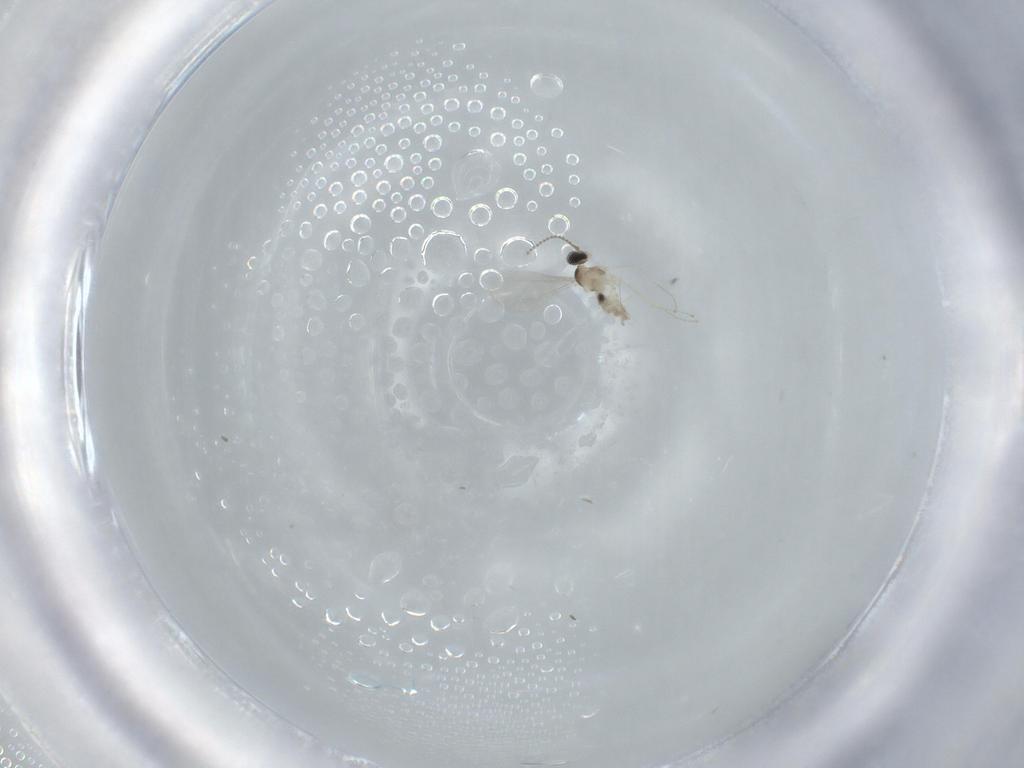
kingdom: Animalia
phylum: Arthropoda
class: Insecta
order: Diptera
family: Cecidomyiidae
